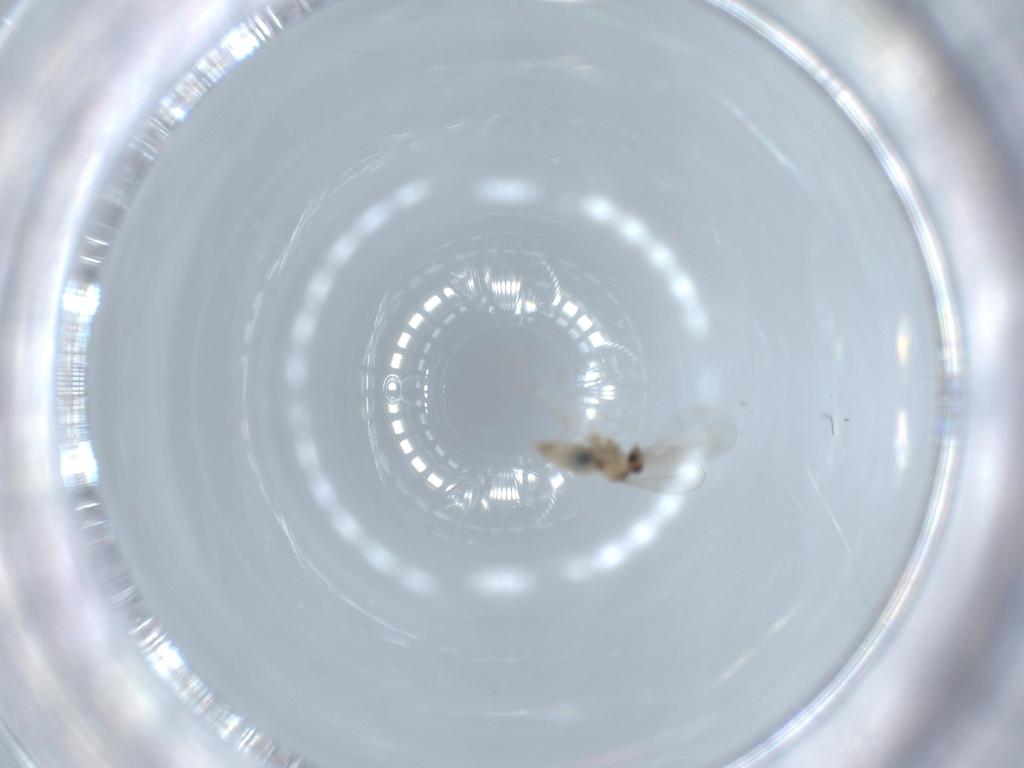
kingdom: Animalia
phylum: Arthropoda
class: Insecta
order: Diptera
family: Cecidomyiidae
